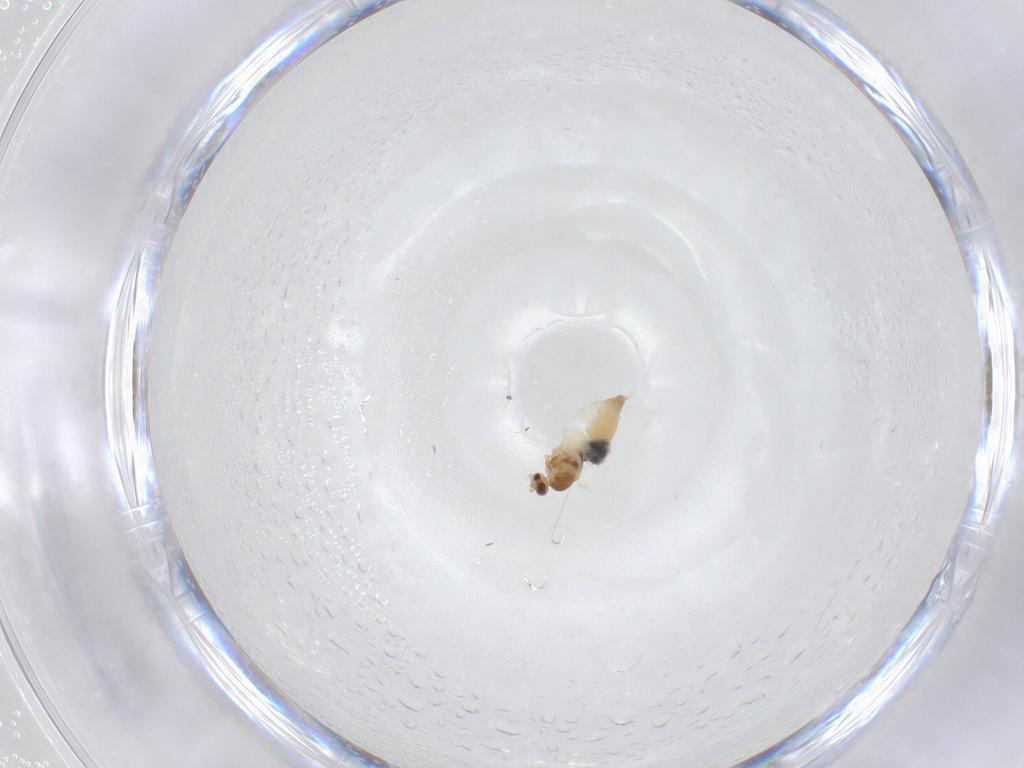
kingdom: Animalia
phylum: Arthropoda
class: Insecta
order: Diptera
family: Cecidomyiidae
